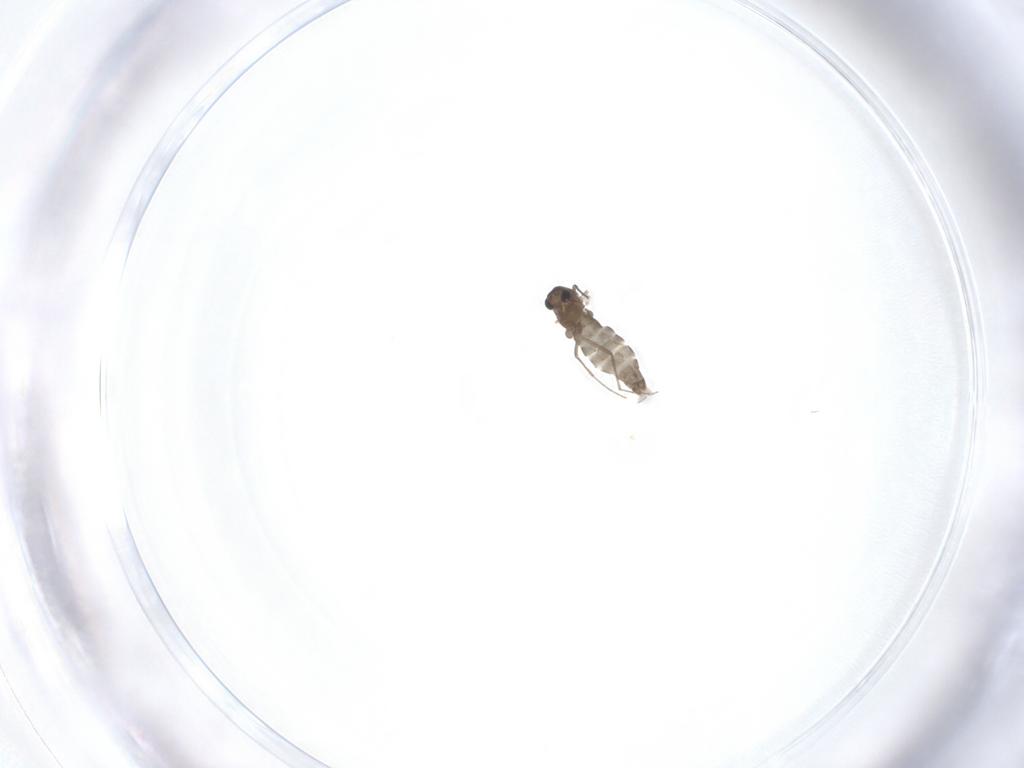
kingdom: Animalia
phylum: Arthropoda
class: Insecta
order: Diptera
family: Chironomidae
